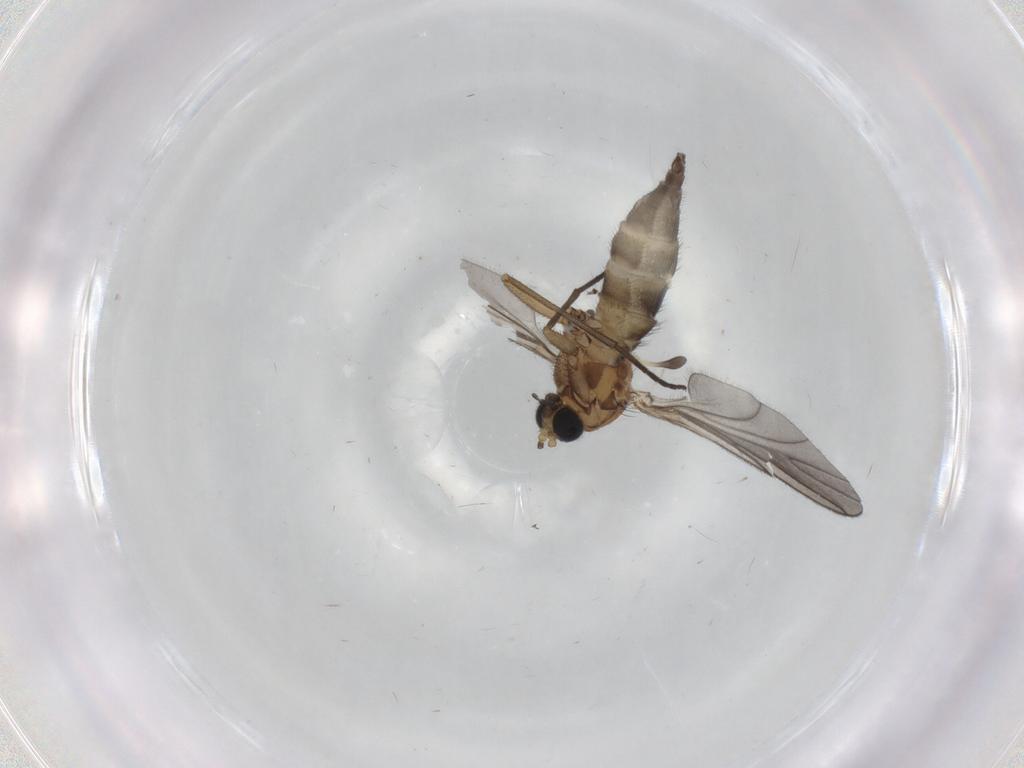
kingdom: Animalia
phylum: Arthropoda
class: Insecta
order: Diptera
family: Sciaridae
